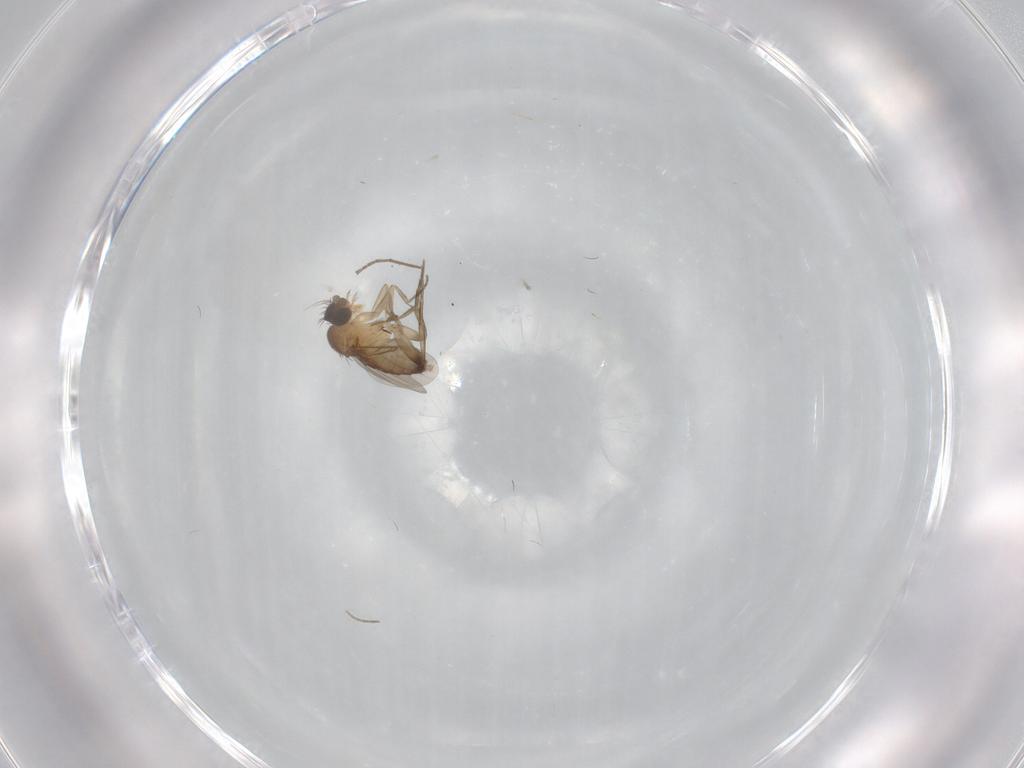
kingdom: Animalia
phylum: Arthropoda
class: Insecta
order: Diptera
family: Phoridae
